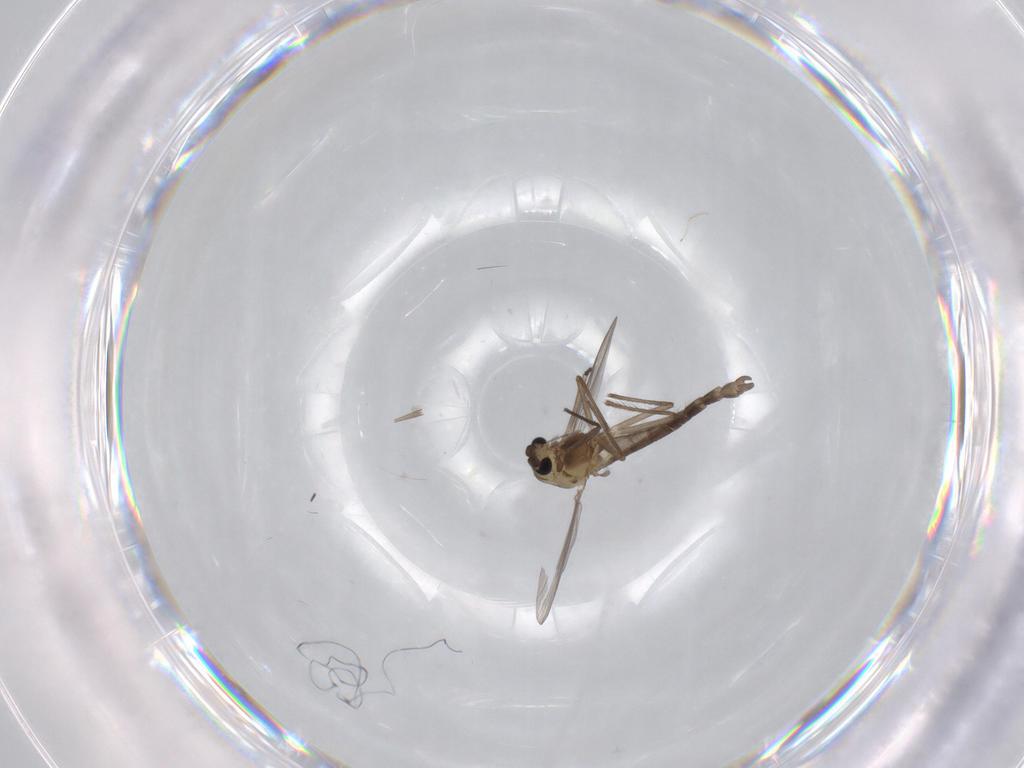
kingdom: Animalia
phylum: Arthropoda
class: Insecta
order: Diptera
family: Chironomidae
